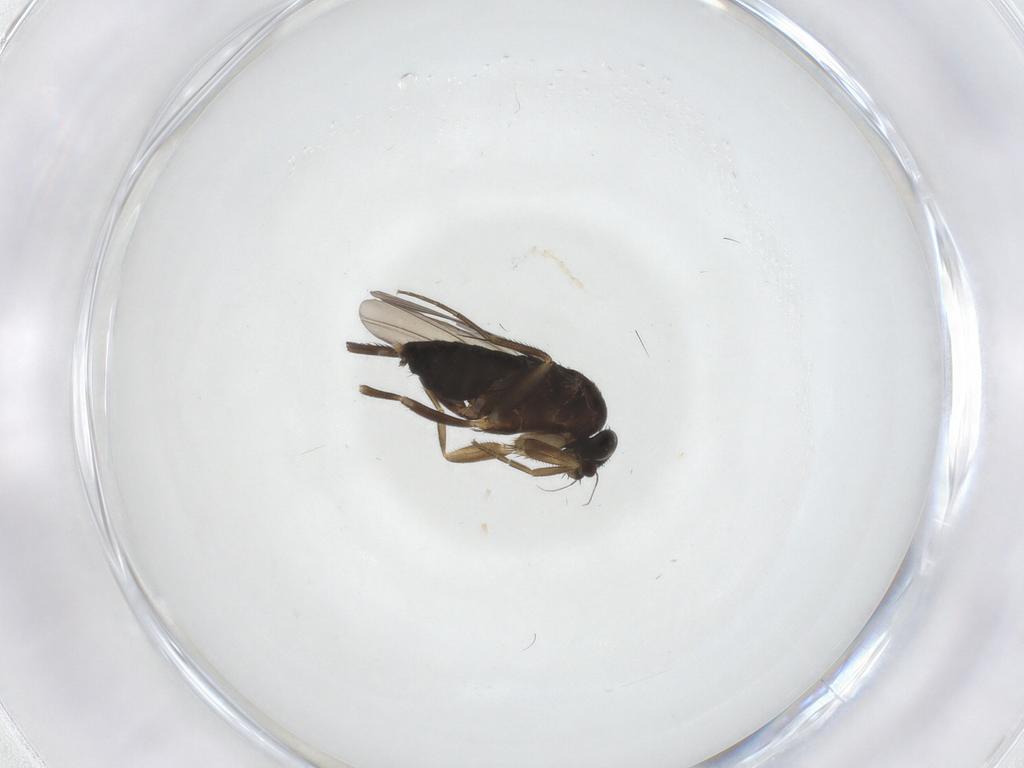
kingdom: Animalia
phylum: Arthropoda
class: Insecta
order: Diptera
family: Phoridae
